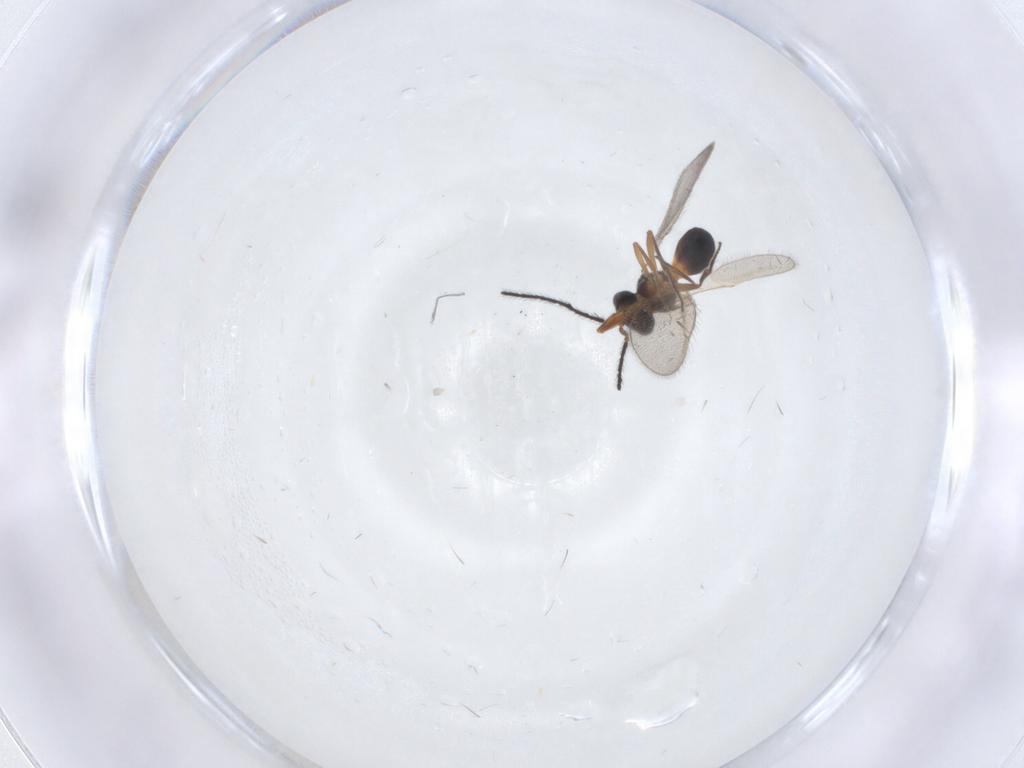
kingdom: Animalia
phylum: Arthropoda
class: Insecta
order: Hymenoptera
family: Scelionidae
